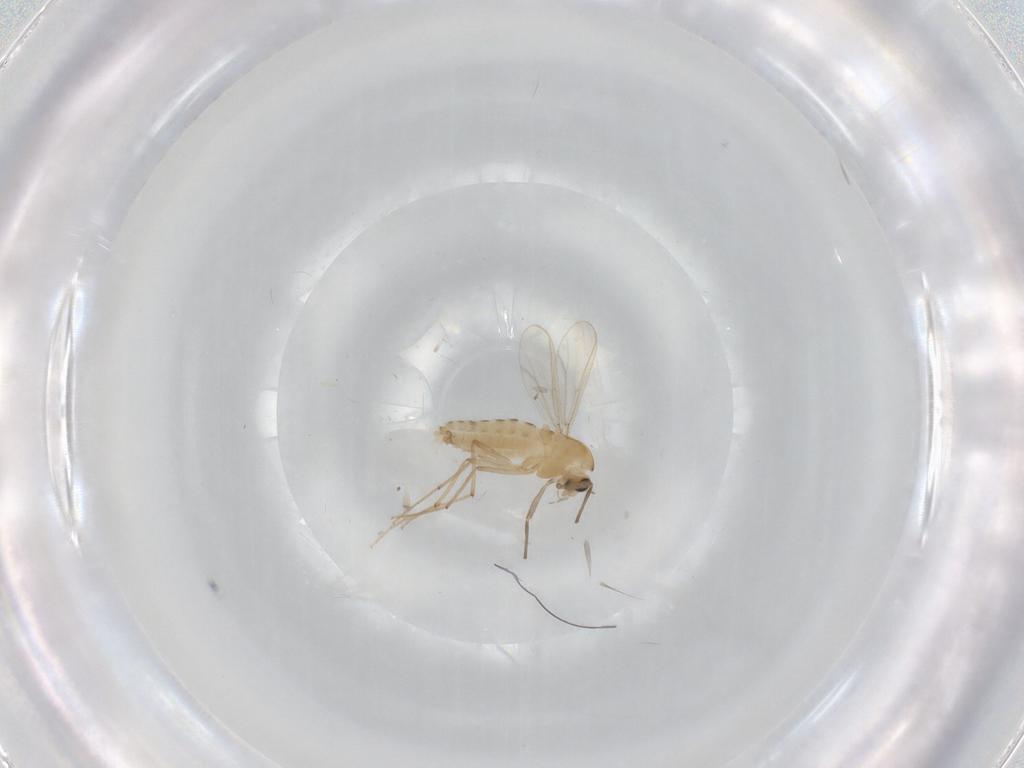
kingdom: Animalia
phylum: Arthropoda
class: Insecta
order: Diptera
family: Chironomidae
